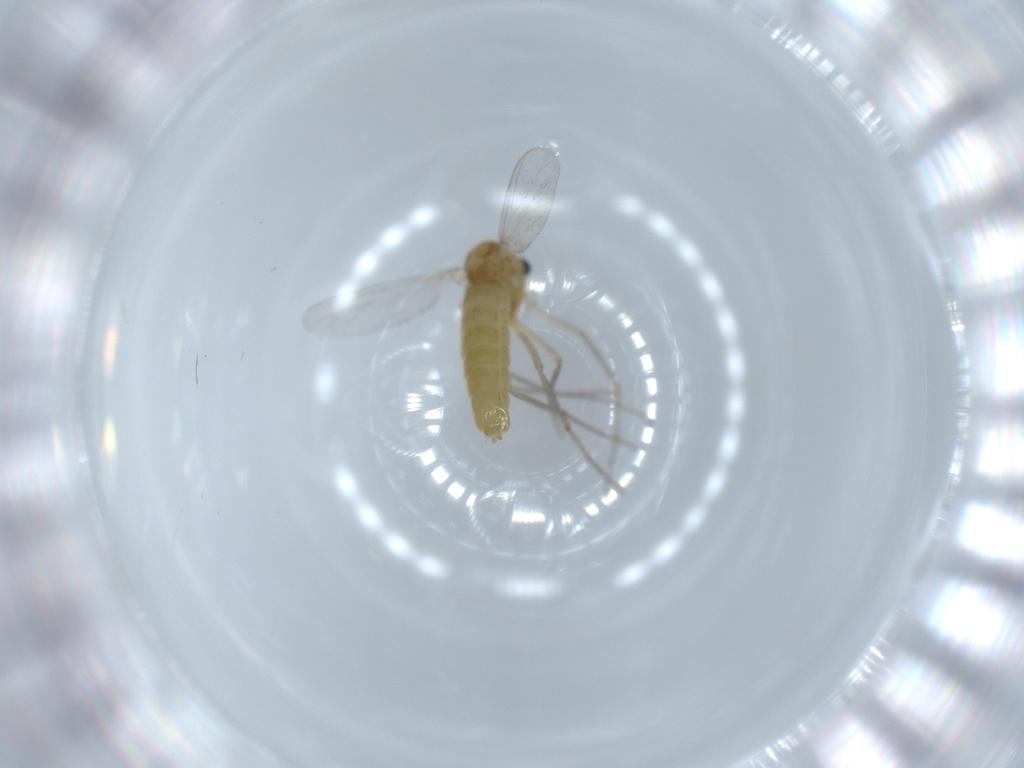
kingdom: Animalia
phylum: Arthropoda
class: Insecta
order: Diptera
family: Chironomidae
